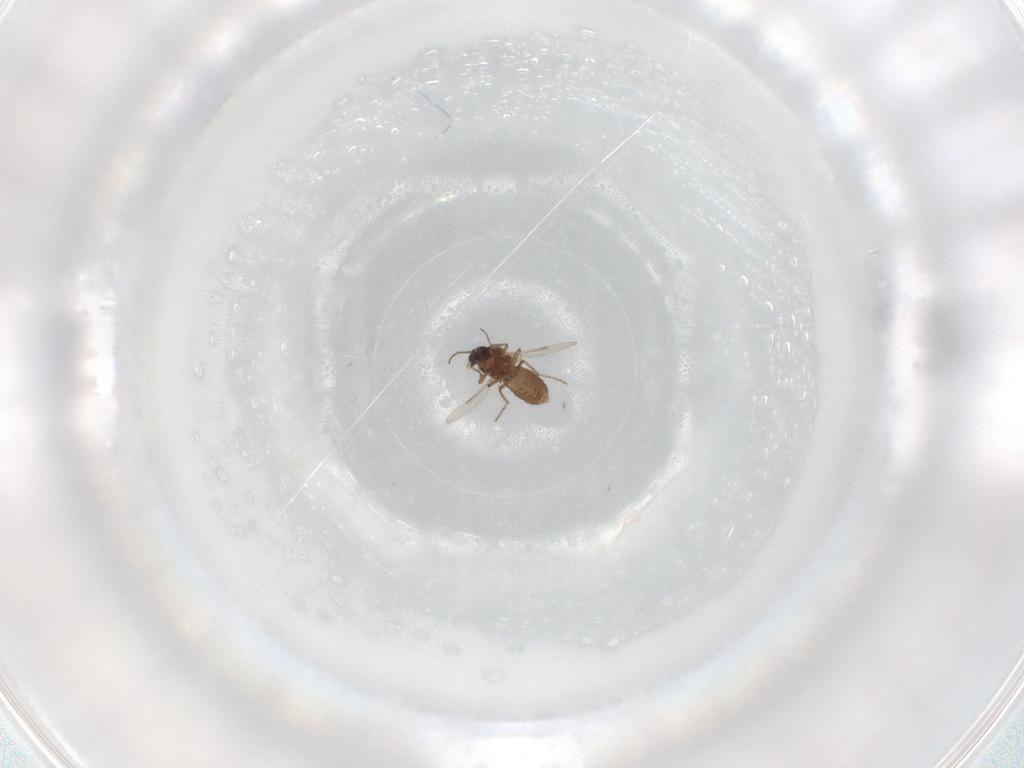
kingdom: Animalia
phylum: Arthropoda
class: Insecta
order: Diptera
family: Ceratopogonidae
